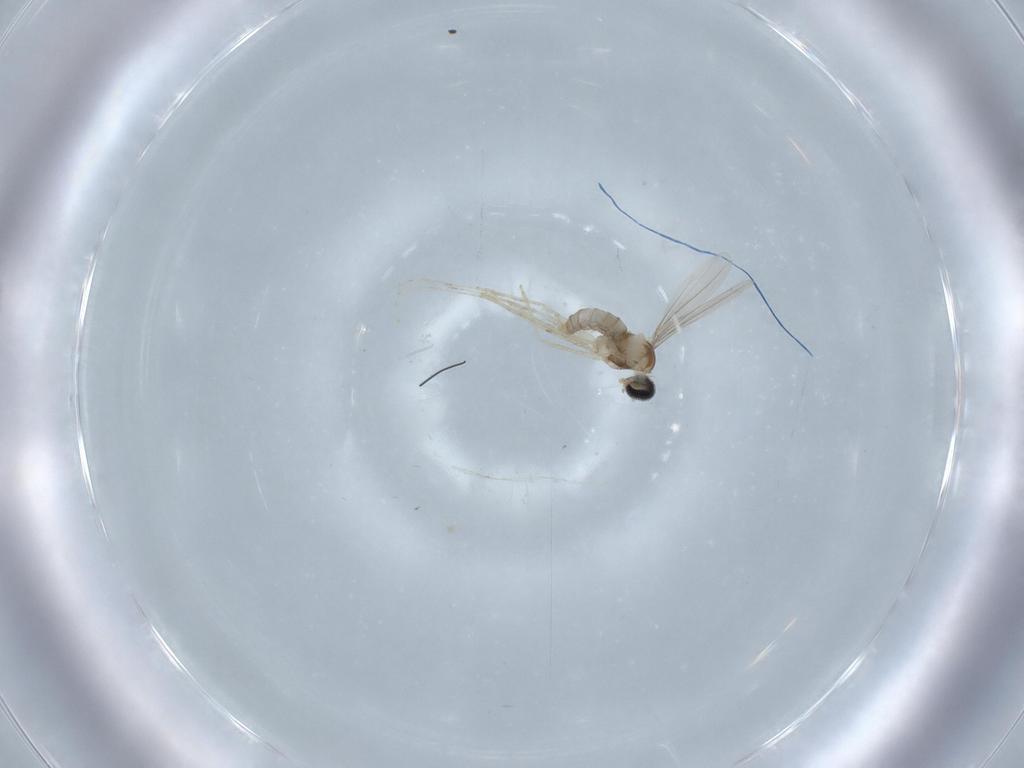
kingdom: Animalia
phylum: Arthropoda
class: Insecta
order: Diptera
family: Cecidomyiidae
